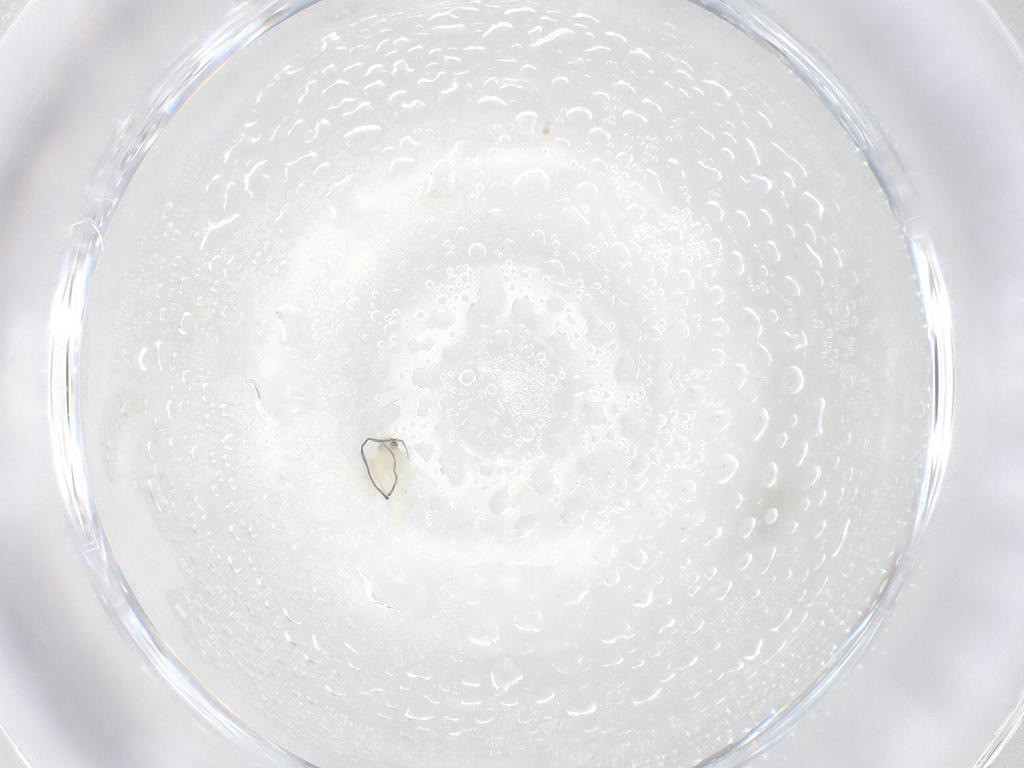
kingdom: Animalia
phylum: Arthropoda
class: Insecta
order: Hemiptera
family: Aleyrodidae
